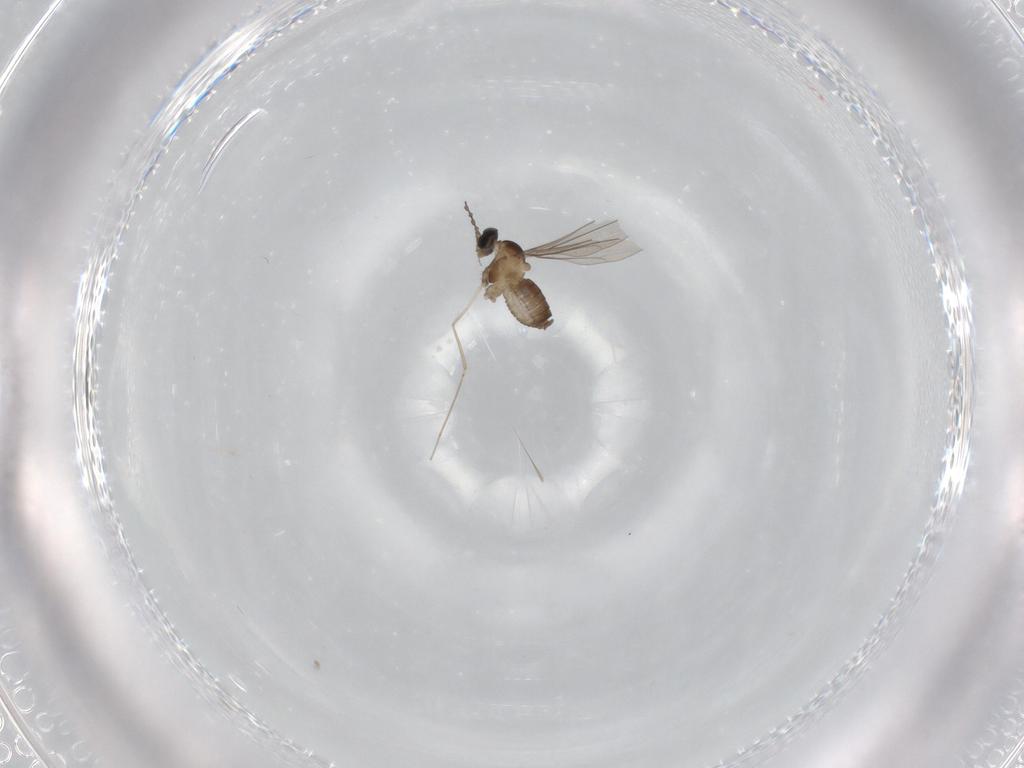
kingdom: Animalia
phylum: Arthropoda
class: Insecta
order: Diptera
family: Cecidomyiidae
